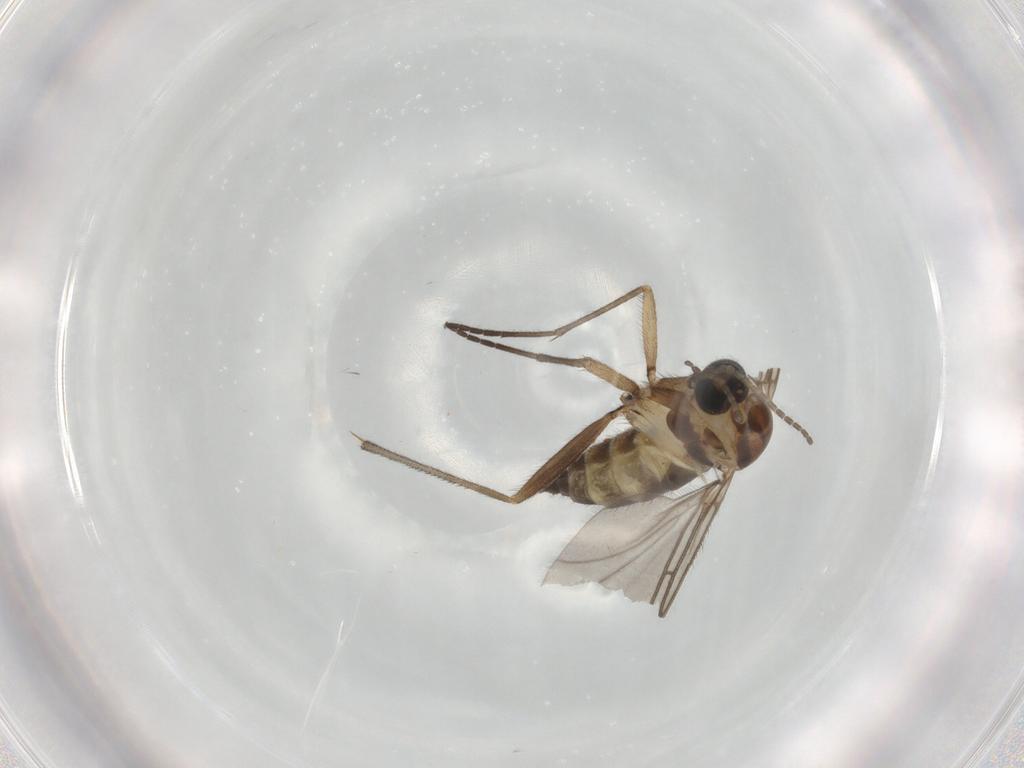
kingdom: Animalia
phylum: Arthropoda
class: Insecta
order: Diptera
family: Sciaridae
